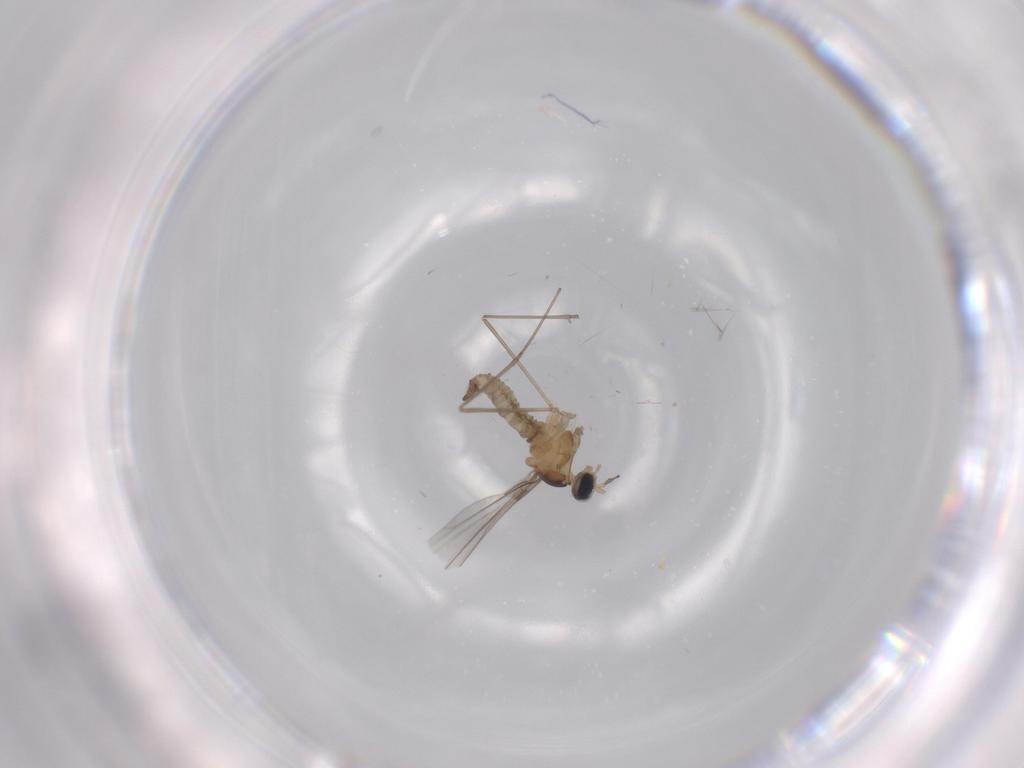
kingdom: Animalia
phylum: Arthropoda
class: Insecta
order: Diptera
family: Cecidomyiidae
